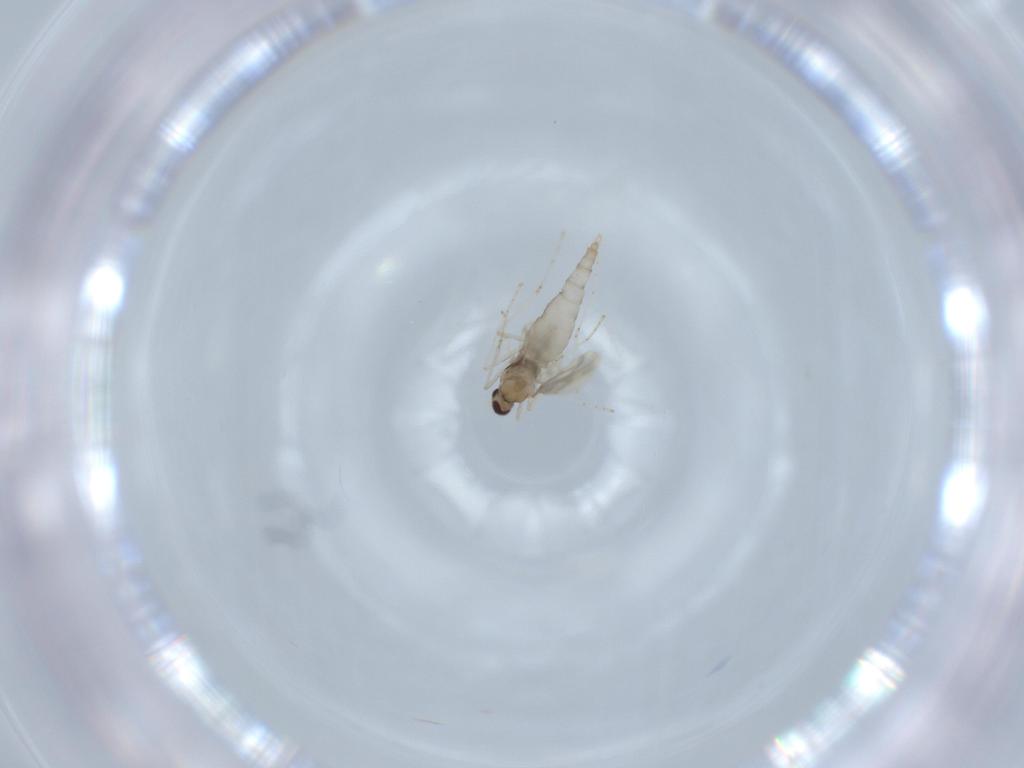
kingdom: Animalia
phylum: Arthropoda
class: Insecta
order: Diptera
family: Cecidomyiidae
